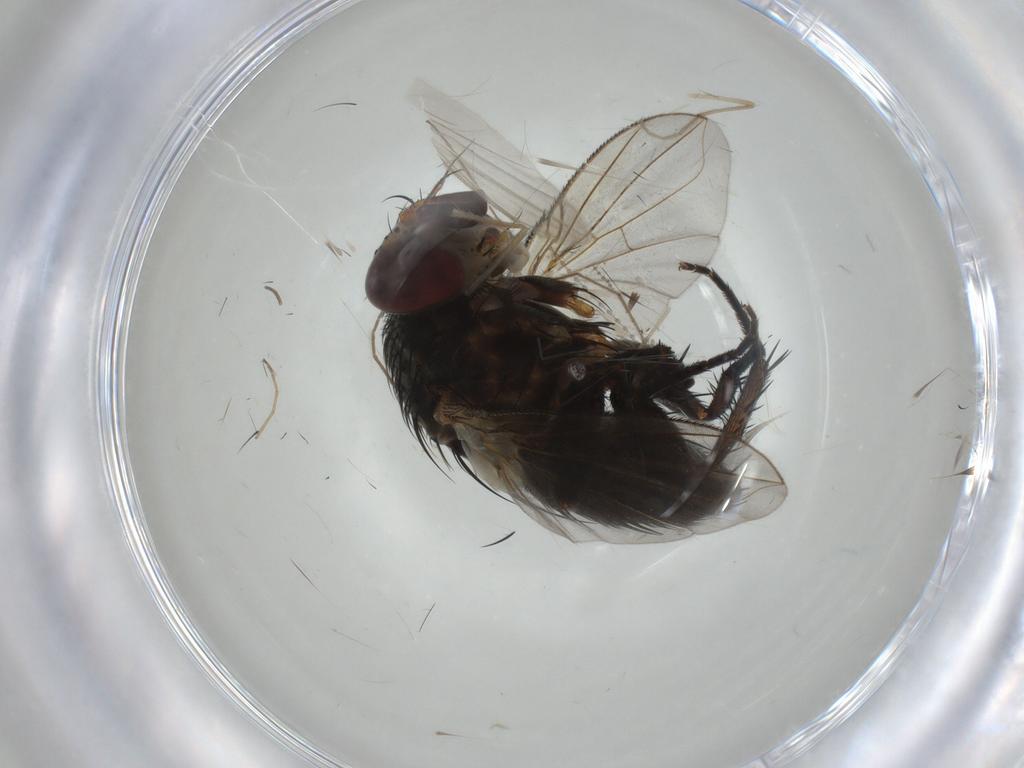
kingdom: Animalia
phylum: Arthropoda
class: Insecta
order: Diptera
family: Tachinidae
